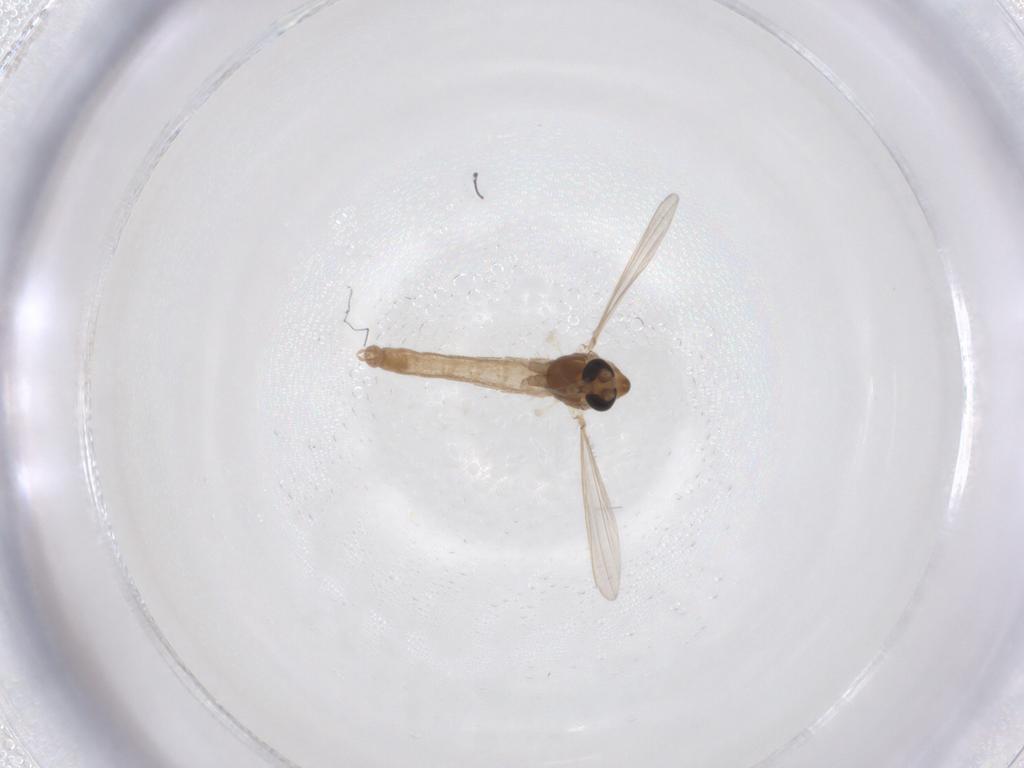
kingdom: Animalia
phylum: Arthropoda
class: Insecta
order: Diptera
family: Chironomidae
